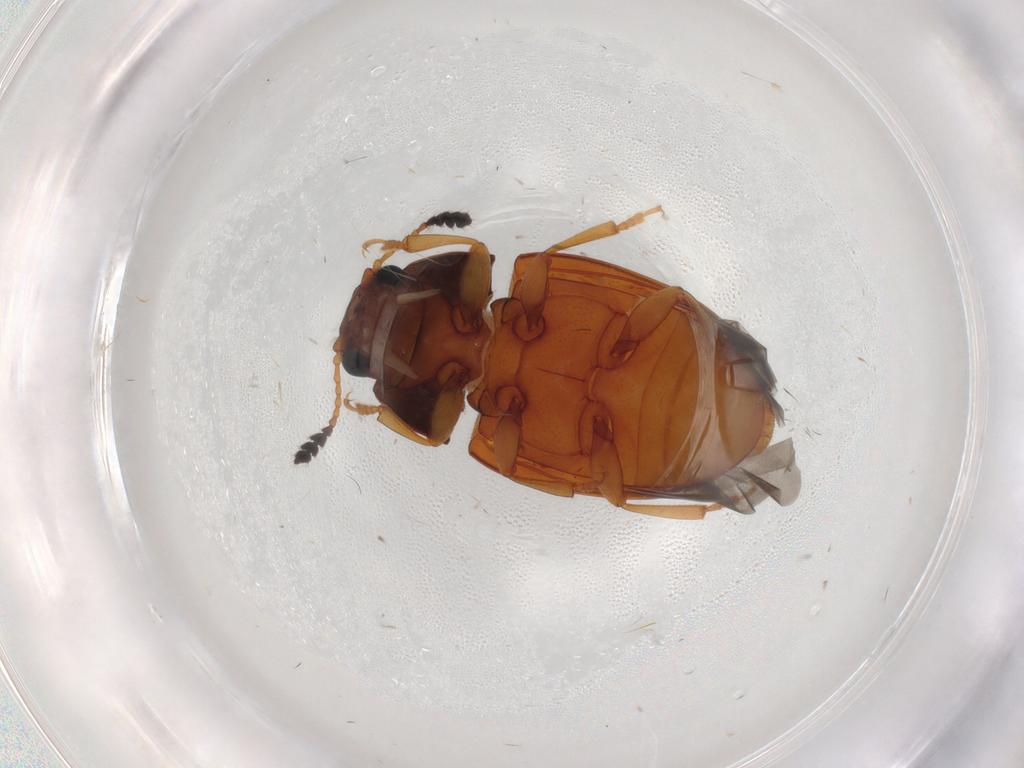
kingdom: Animalia
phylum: Arthropoda
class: Insecta
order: Coleoptera
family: Erotylidae
